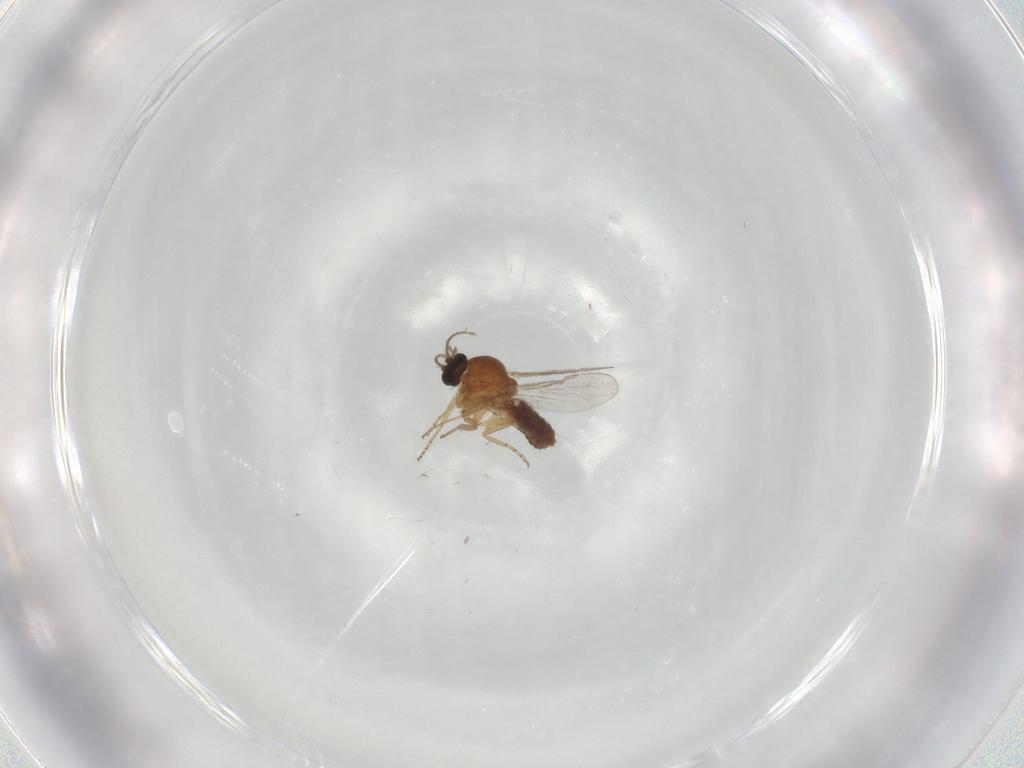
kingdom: Animalia
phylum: Arthropoda
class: Insecta
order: Diptera
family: Ceratopogonidae
